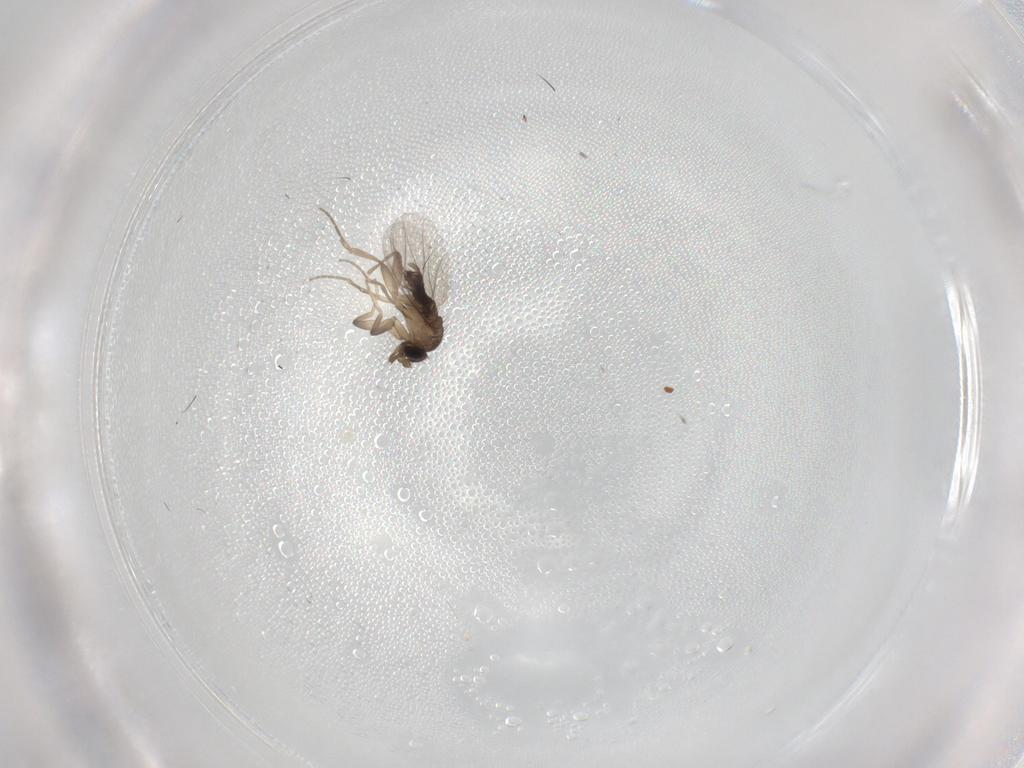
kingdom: Animalia
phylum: Arthropoda
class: Insecta
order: Diptera
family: Phoridae
